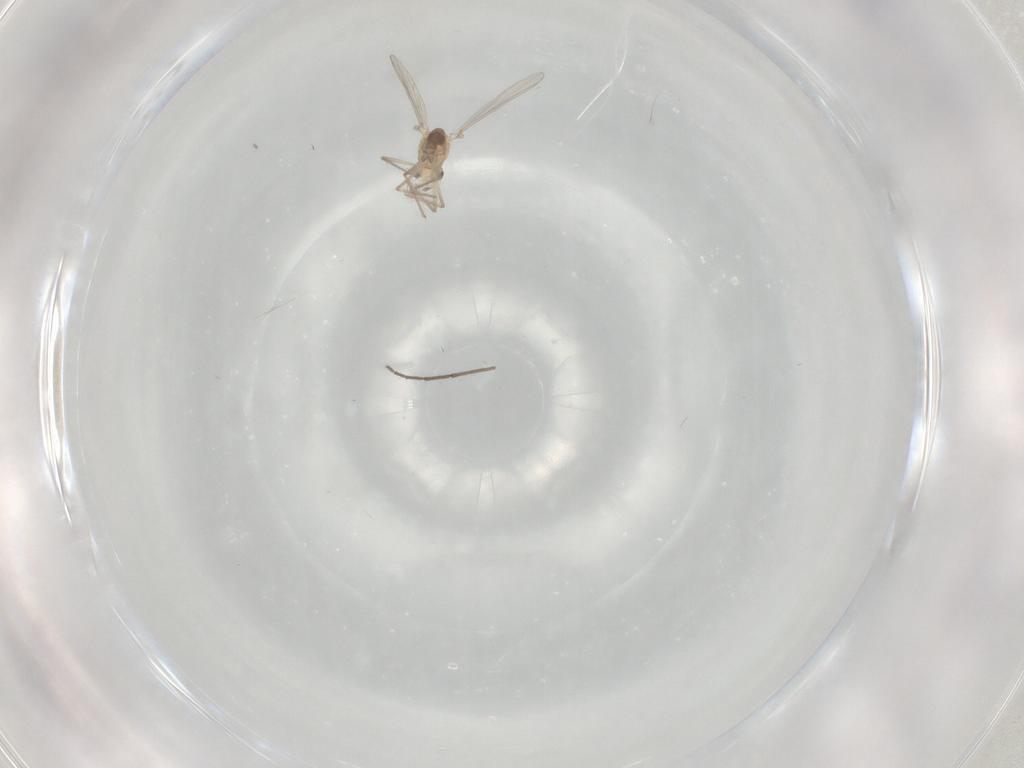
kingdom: Animalia
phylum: Arthropoda
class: Insecta
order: Diptera
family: Chironomidae
